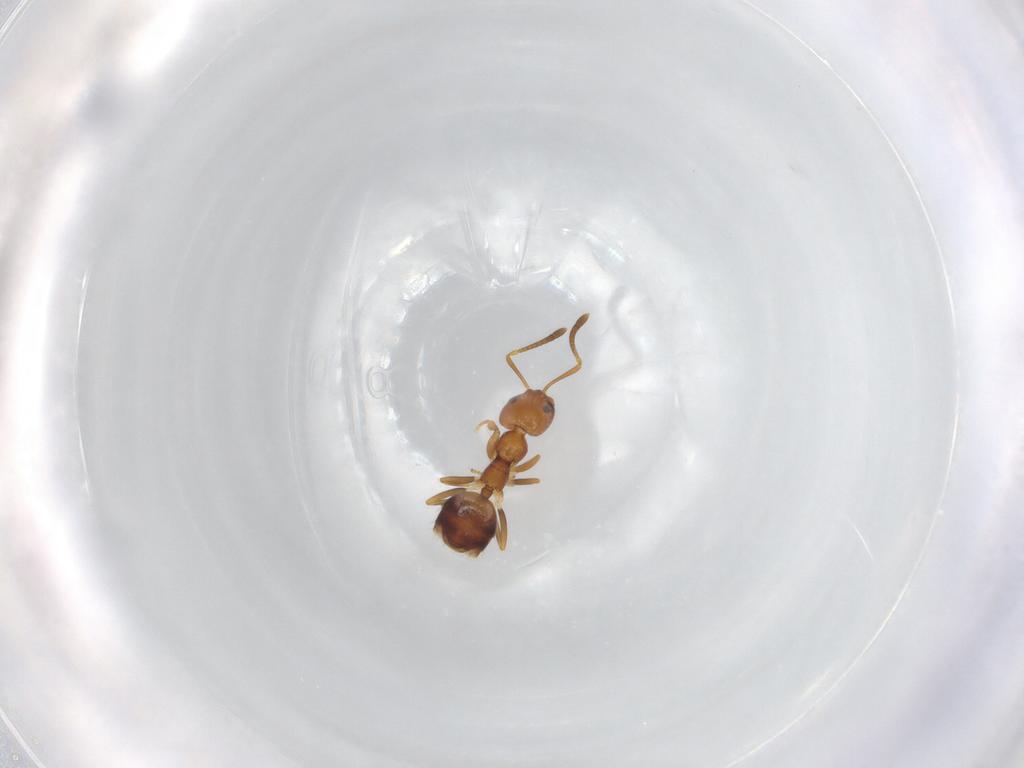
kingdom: Animalia
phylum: Arthropoda
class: Insecta
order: Hymenoptera
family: Formicidae
